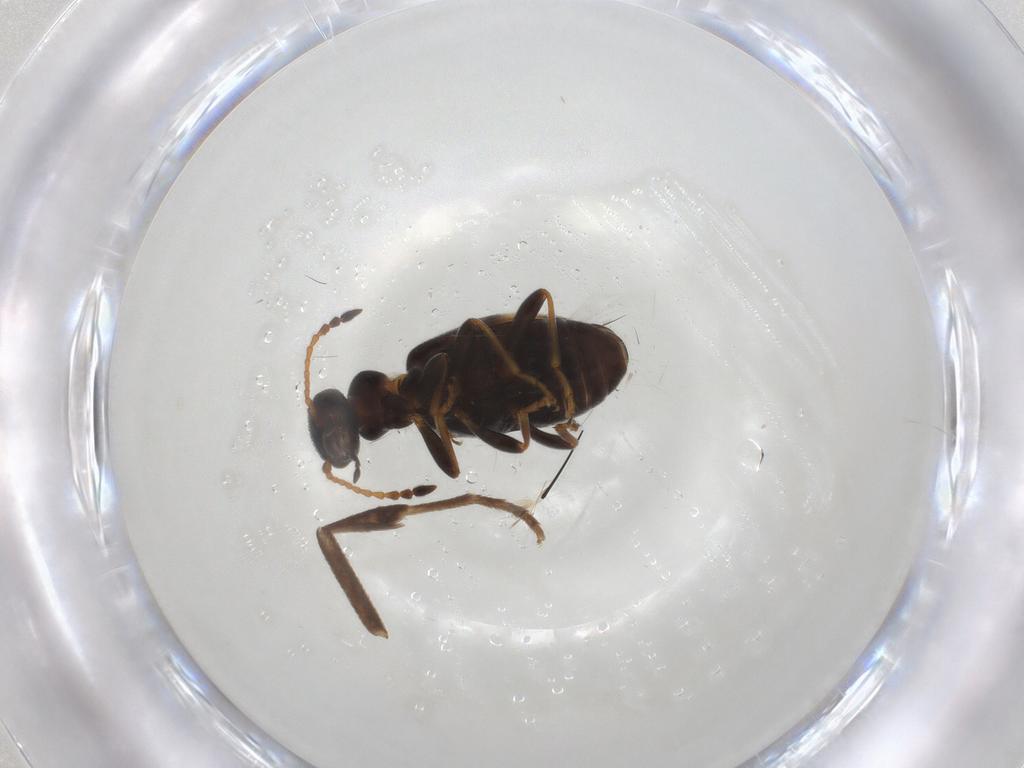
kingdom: Animalia
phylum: Arthropoda
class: Insecta
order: Coleoptera
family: Anthicidae
